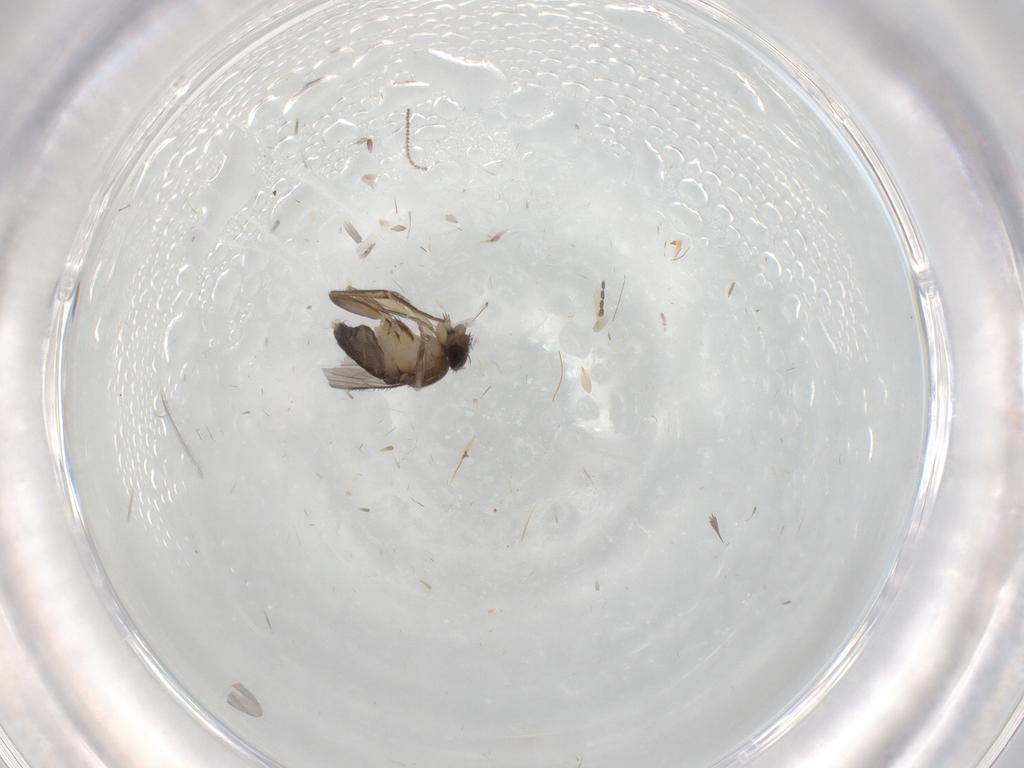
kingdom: Animalia
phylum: Arthropoda
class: Insecta
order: Diptera
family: Phoridae
